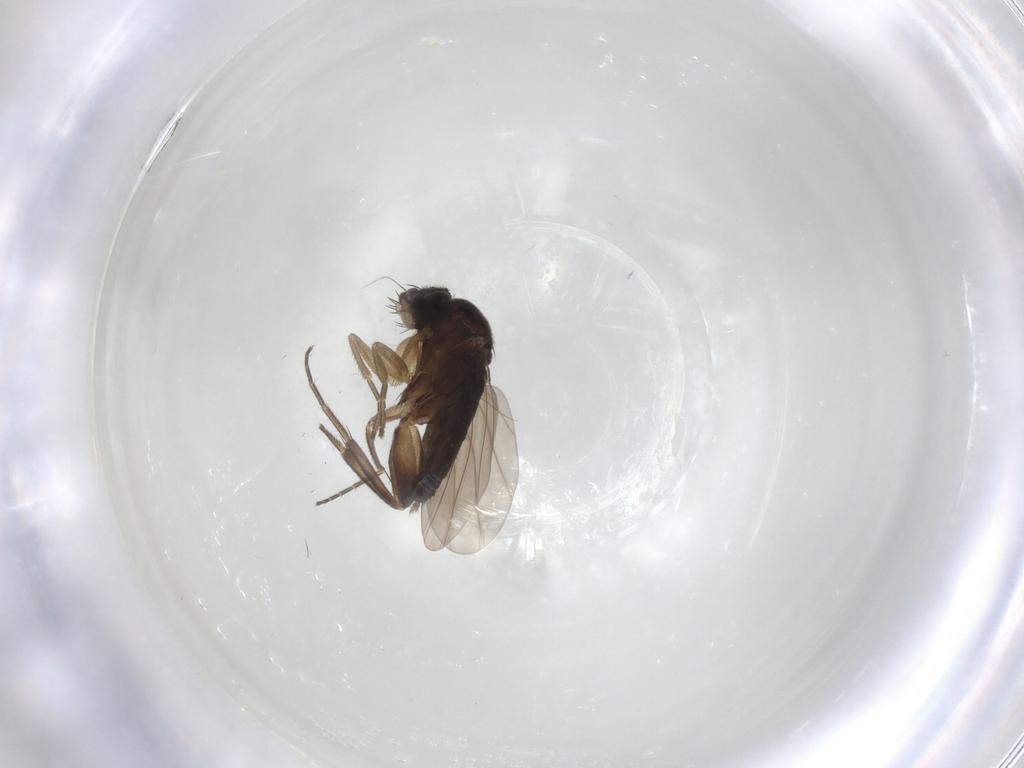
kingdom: Animalia
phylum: Arthropoda
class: Insecta
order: Diptera
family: Phoridae
